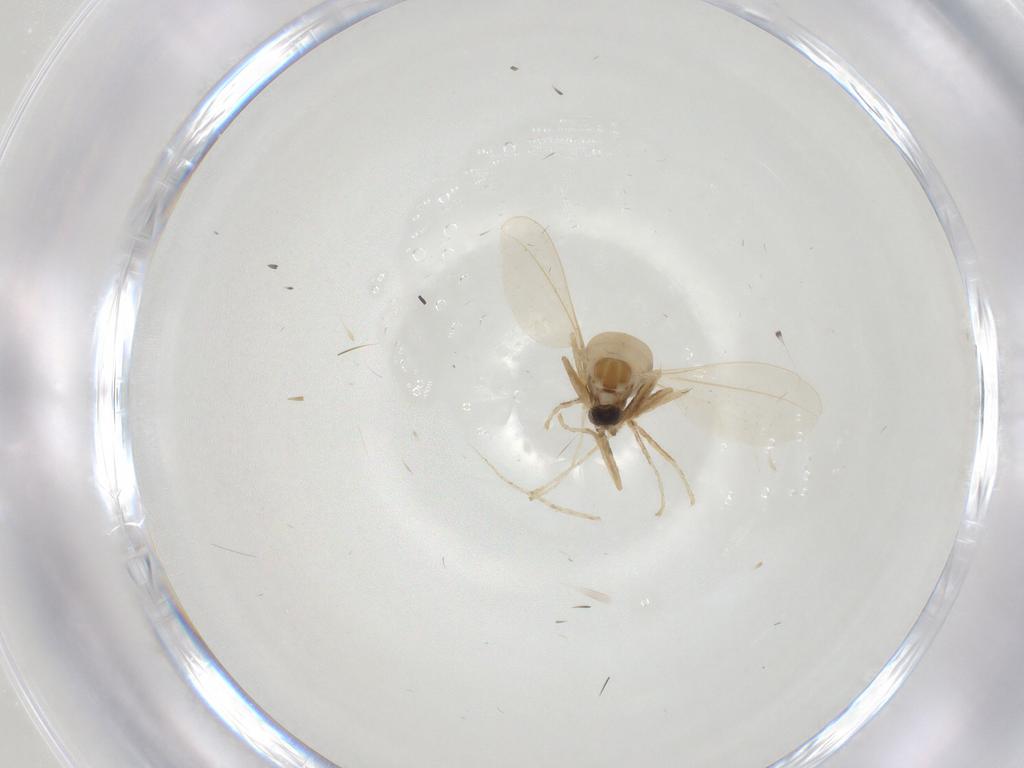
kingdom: Animalia
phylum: Arthropoda
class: Insecta
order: Diptera
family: Cecidomyiidae
